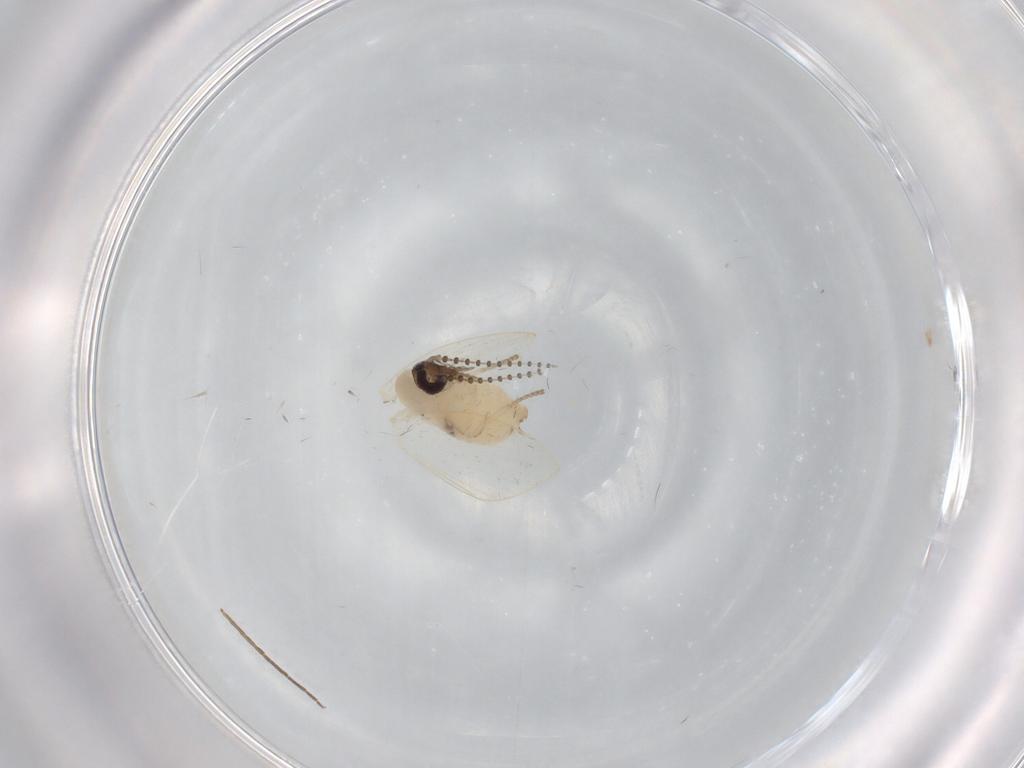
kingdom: Animalia
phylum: Arthropoda
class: Insecta
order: Diptera
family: Psychodidae
